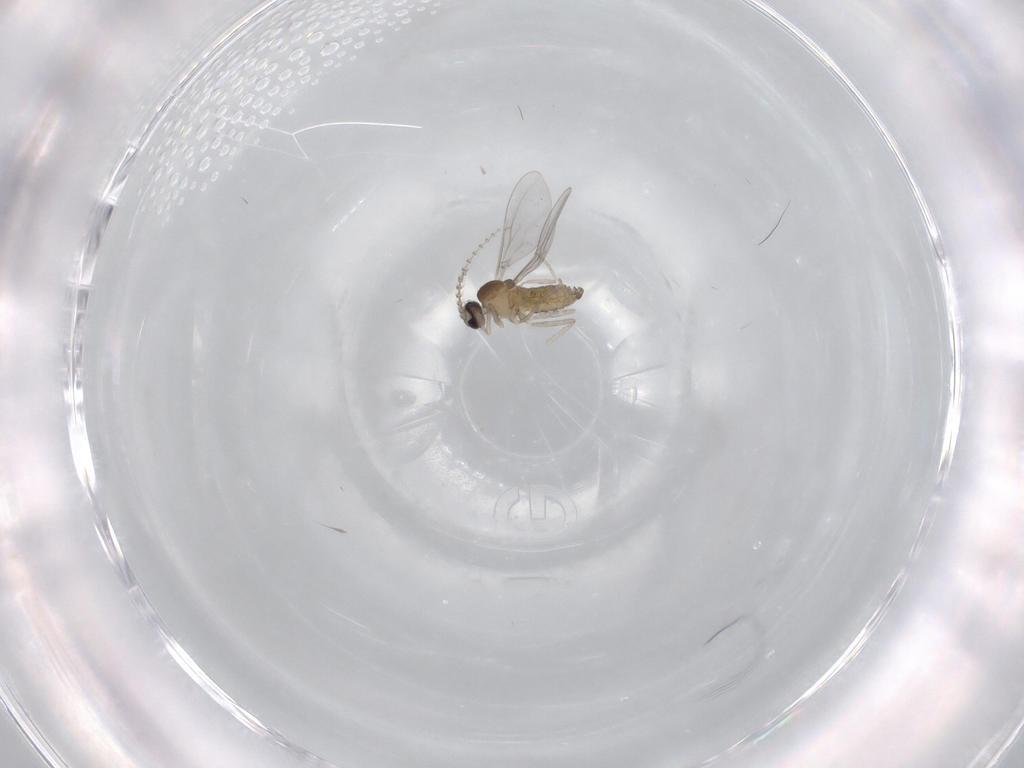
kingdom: Animalia
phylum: Arthropoda
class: Insecta
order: Diptera
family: Cecidomyiidae
